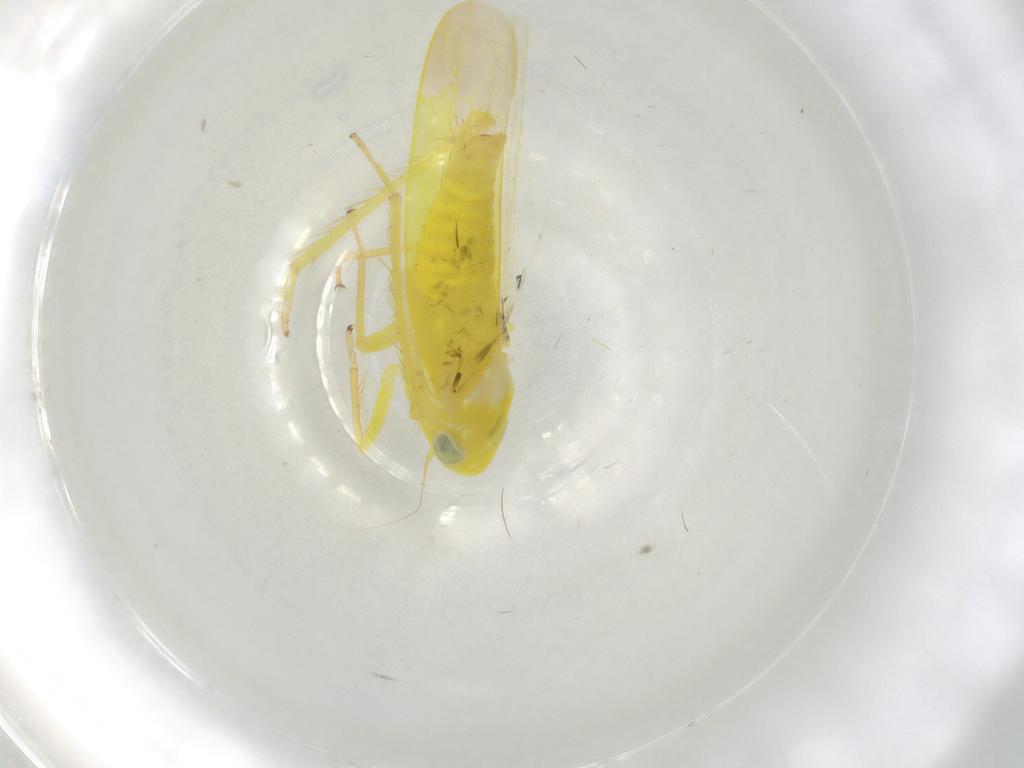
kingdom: Animalia
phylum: Arthropoda
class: Insecta
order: Hemiptera
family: Cicadellidae
